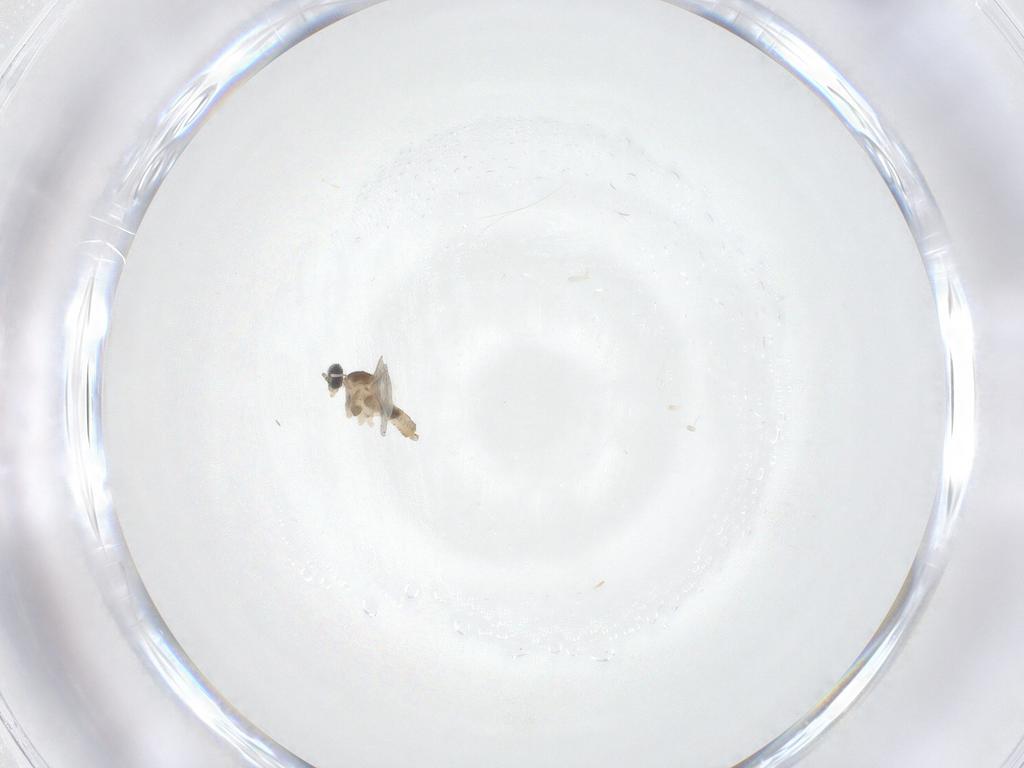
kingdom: Animalia
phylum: Arthropoda
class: Insecta
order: Diptera
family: Cecidomyiidae
